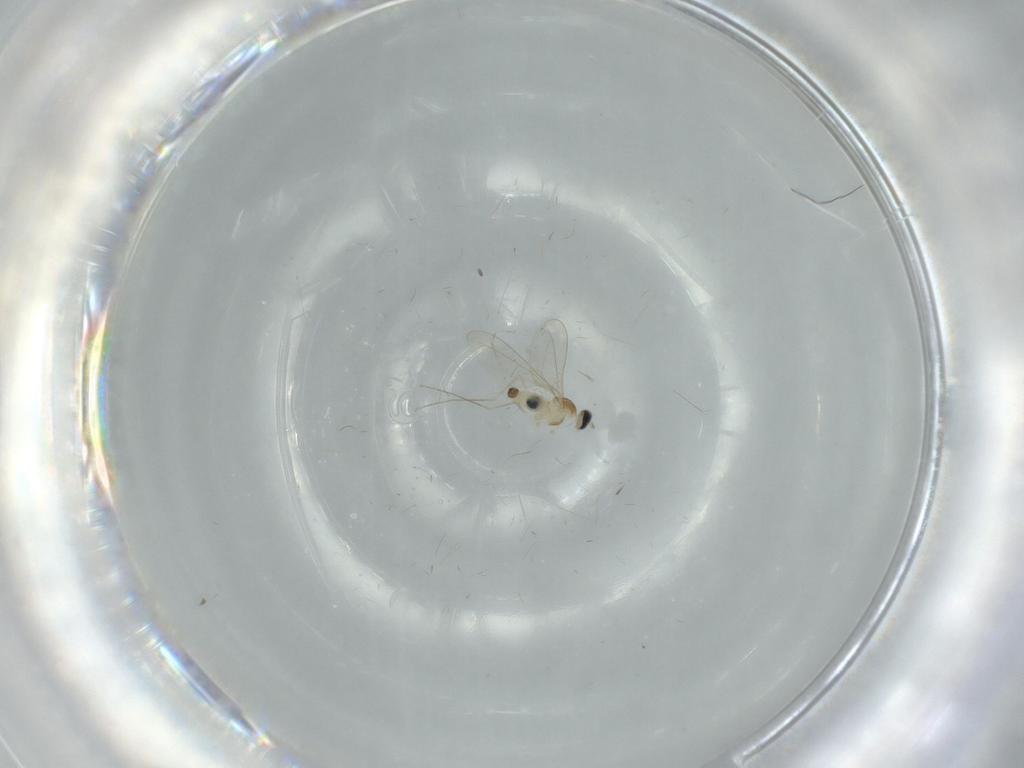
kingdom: Animalia
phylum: Arthropoda
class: Insecta
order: Diptera
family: Psychodidae
